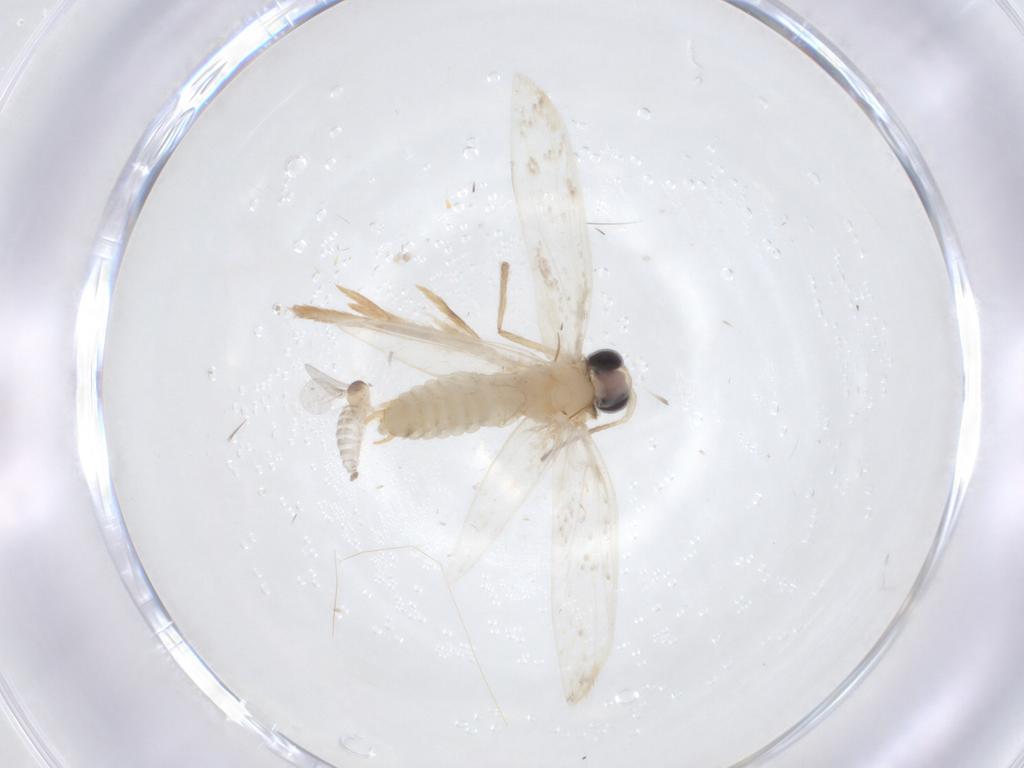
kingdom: Animalia
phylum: Arthropoda
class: Insecta
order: Lepidoptera
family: Psychidae
